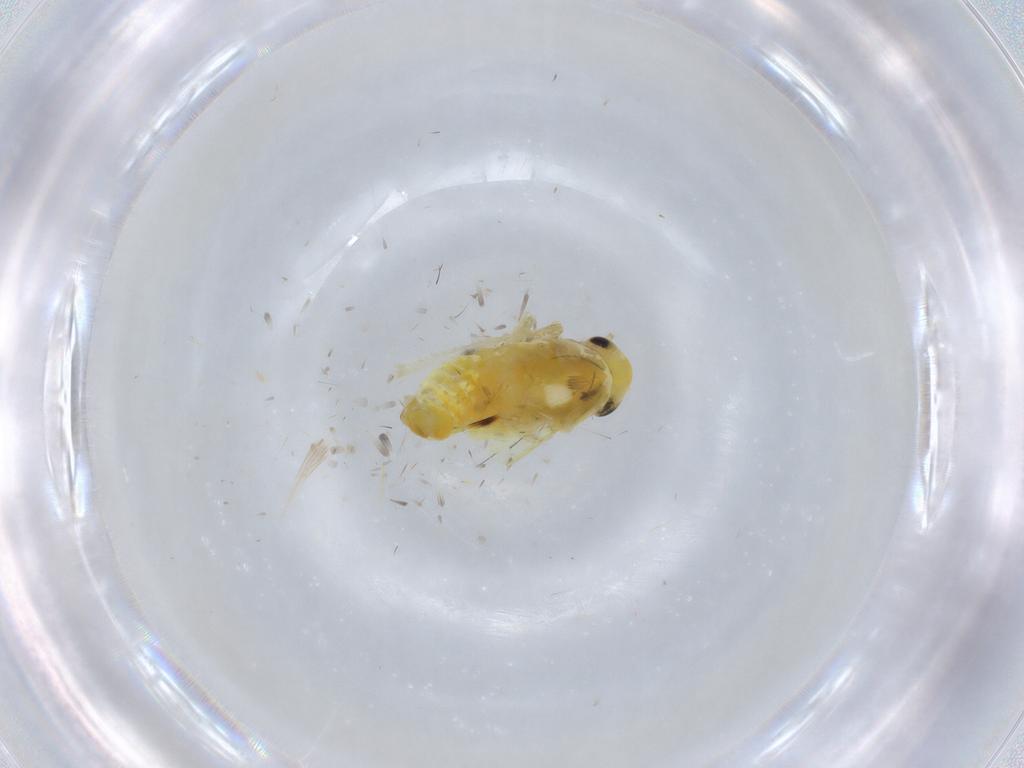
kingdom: Animalia
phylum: Arthropoda
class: Insecta
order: Hemiptera
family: Cicadellidae
